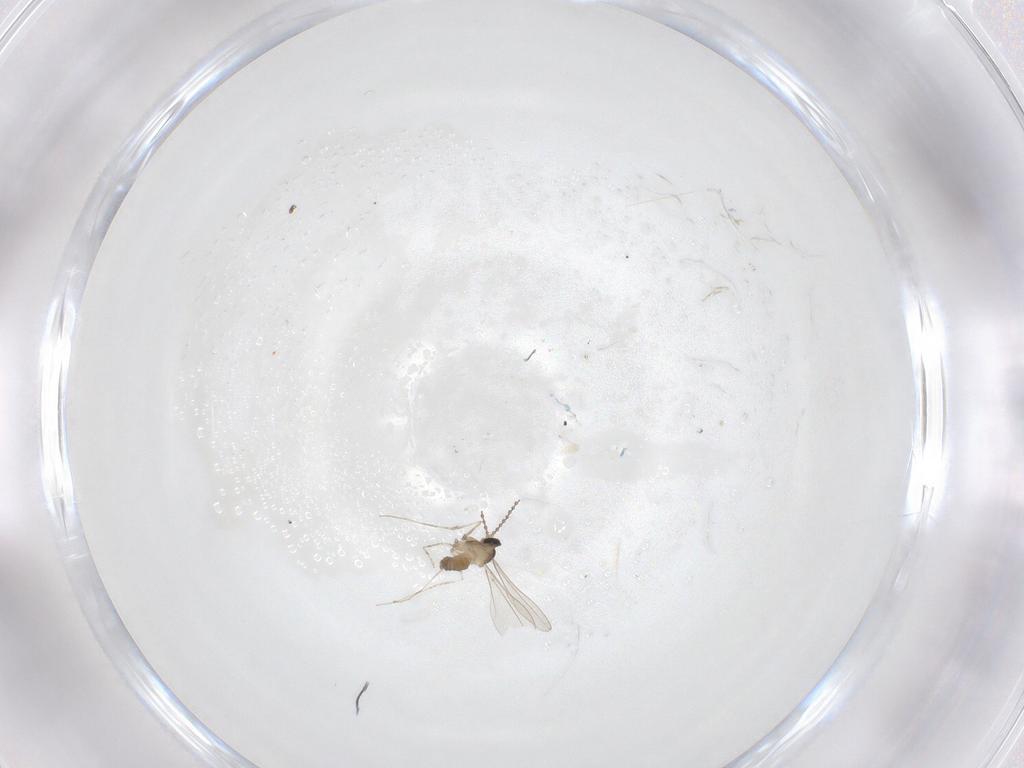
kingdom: Animalia
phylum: Arthropoda
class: Insecta
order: Diptera
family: Cecidomyiidae
